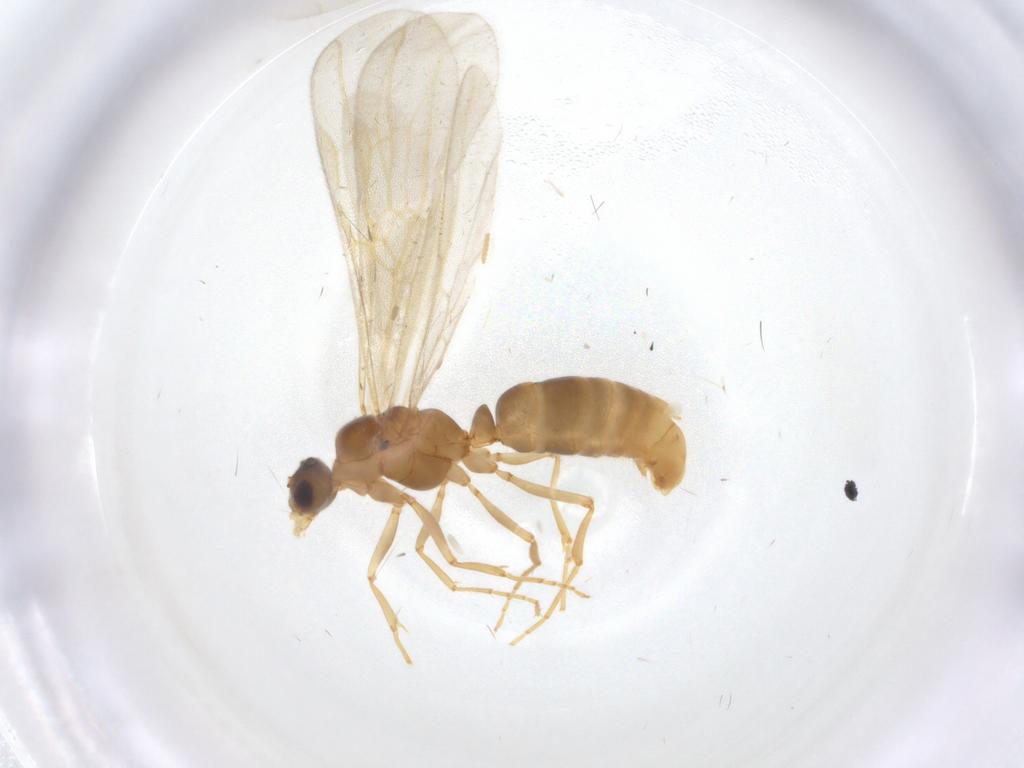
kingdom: Animalia
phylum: Arthropoda
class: Insecta
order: Hymenoptera
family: Formicidae
